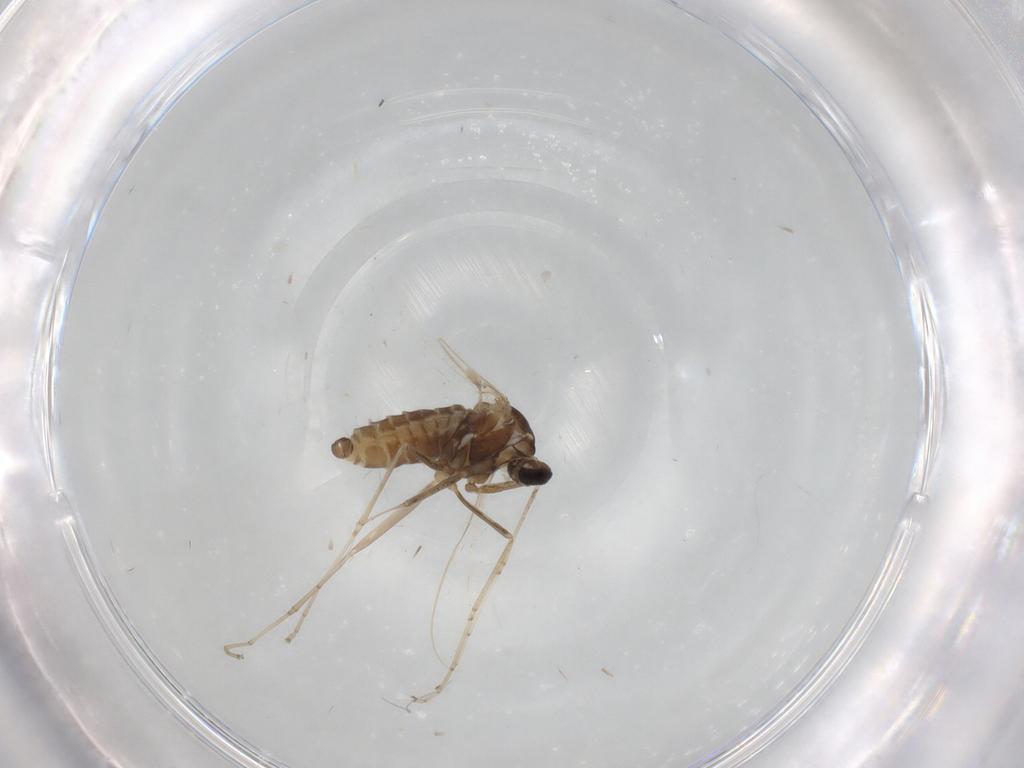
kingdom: Animalia
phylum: Arthropoda
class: Insecta
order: Diptera
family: Cecidomyiidae
